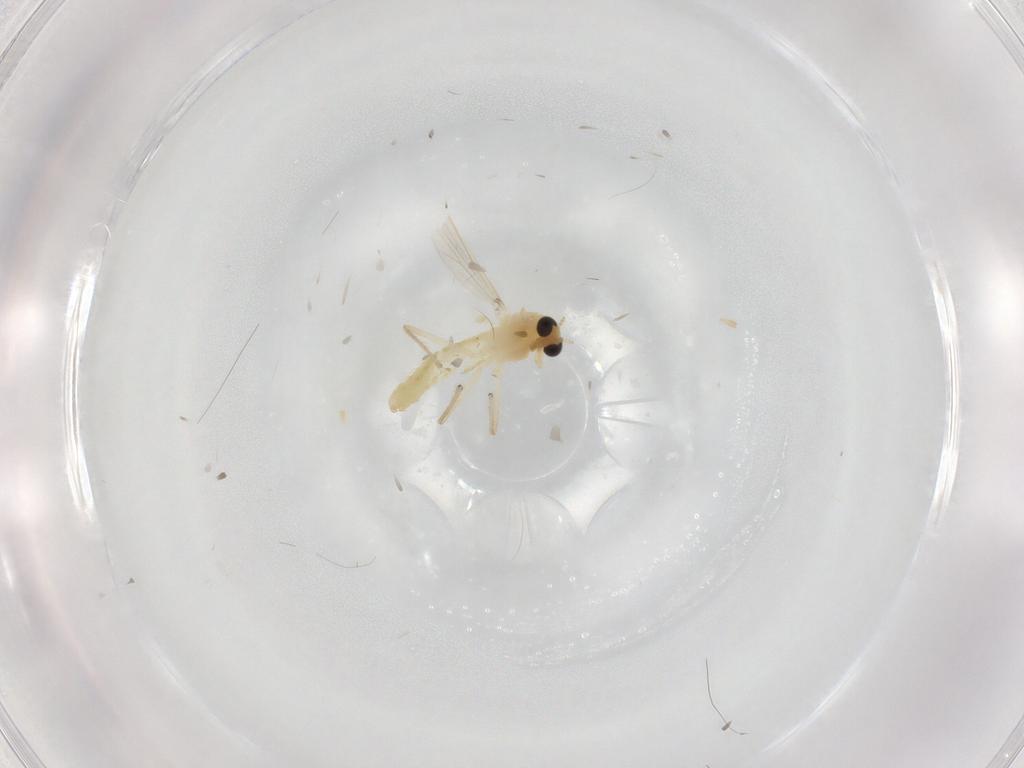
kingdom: Animalia
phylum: Arthropoda
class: Insecta
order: Diptera
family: Chironomidae
